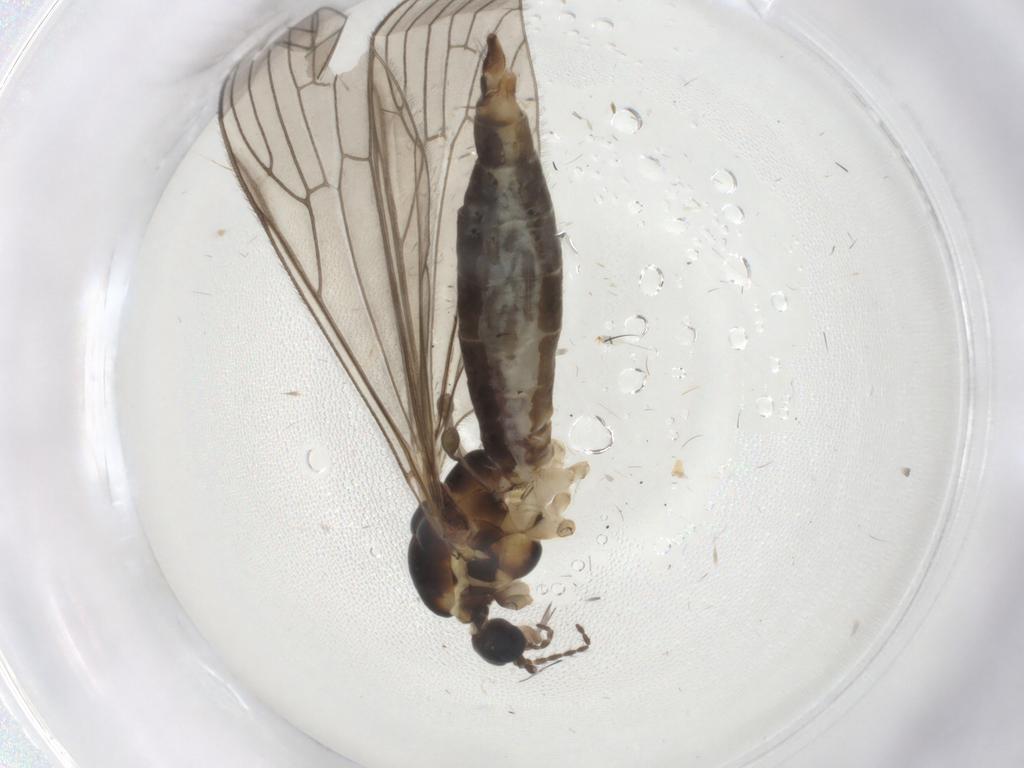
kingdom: Animalia
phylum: Arthropoda
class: Insecta
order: Diptera
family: Limoniidae
